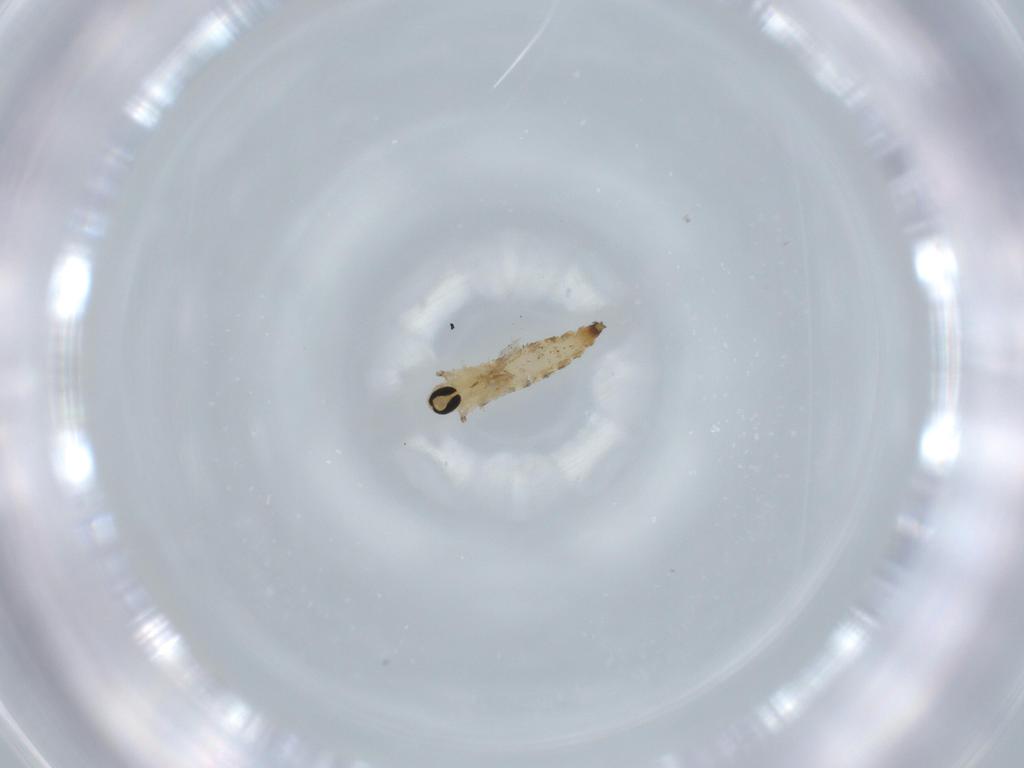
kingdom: Animalia
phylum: Arthropoda
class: Insecta
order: Diptera
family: Cecidomyiidae
